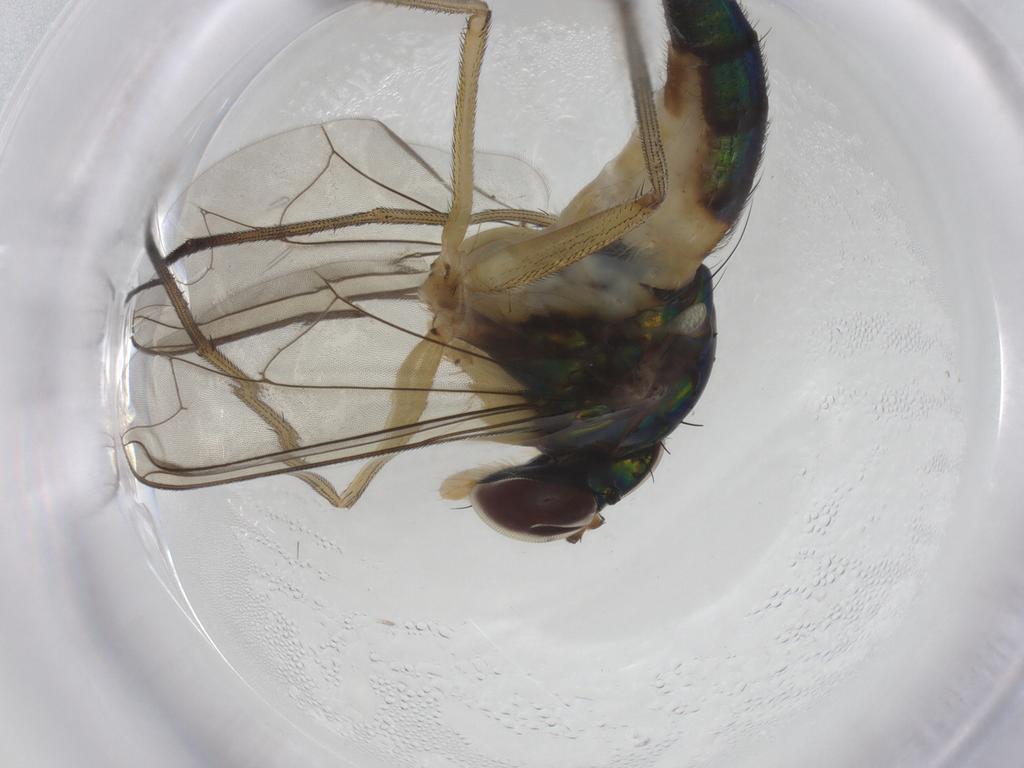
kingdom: Animalia
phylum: Arthropoda
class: Insecta
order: Diptera
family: Dolichopodidae
